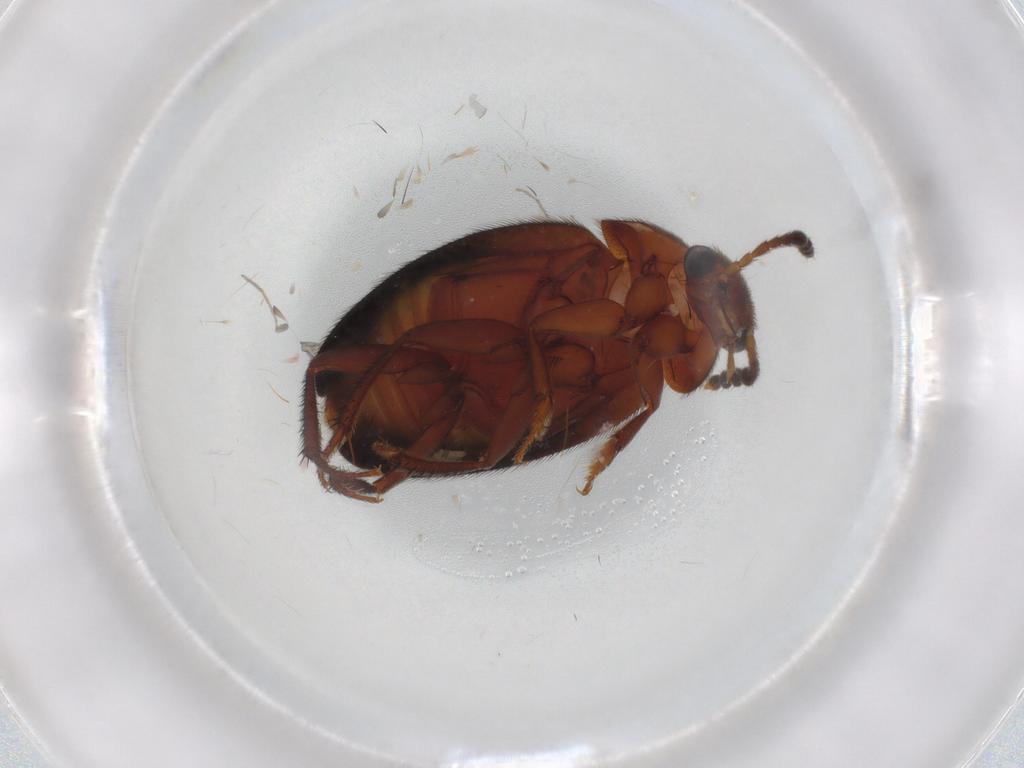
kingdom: Animalia
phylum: Arthropoda
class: Insecta
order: Coleoptera
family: Leiodidae
